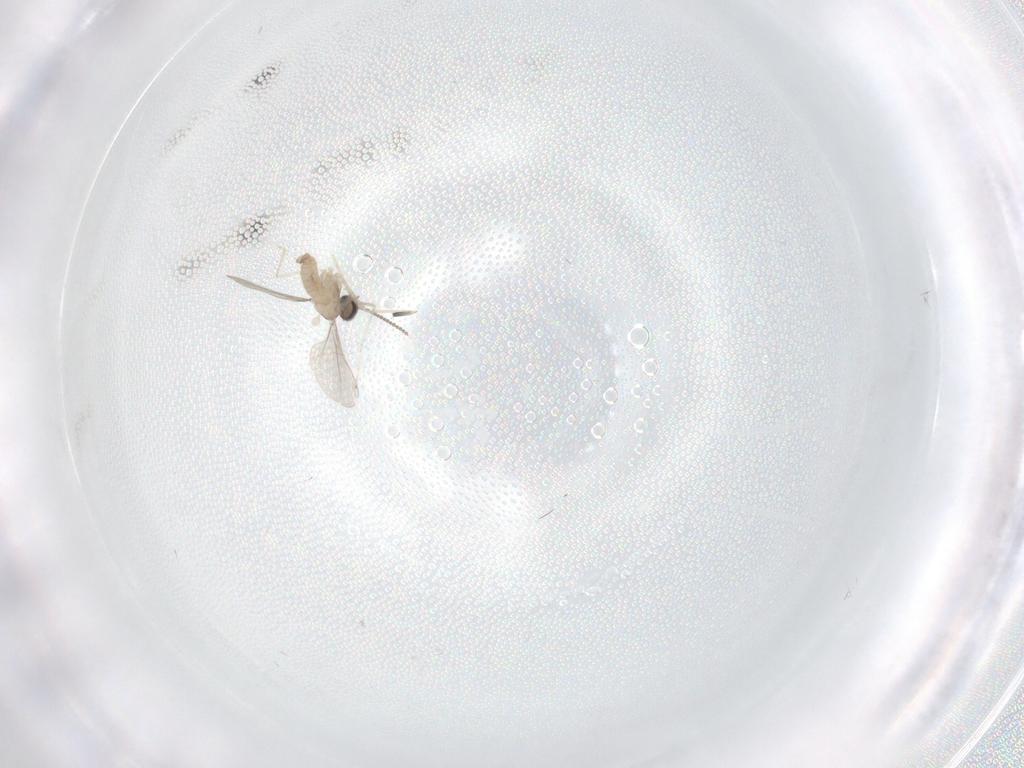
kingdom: Animalia
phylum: Arthropoda
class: Insecta
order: Diptera
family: Cecidomyiidae
